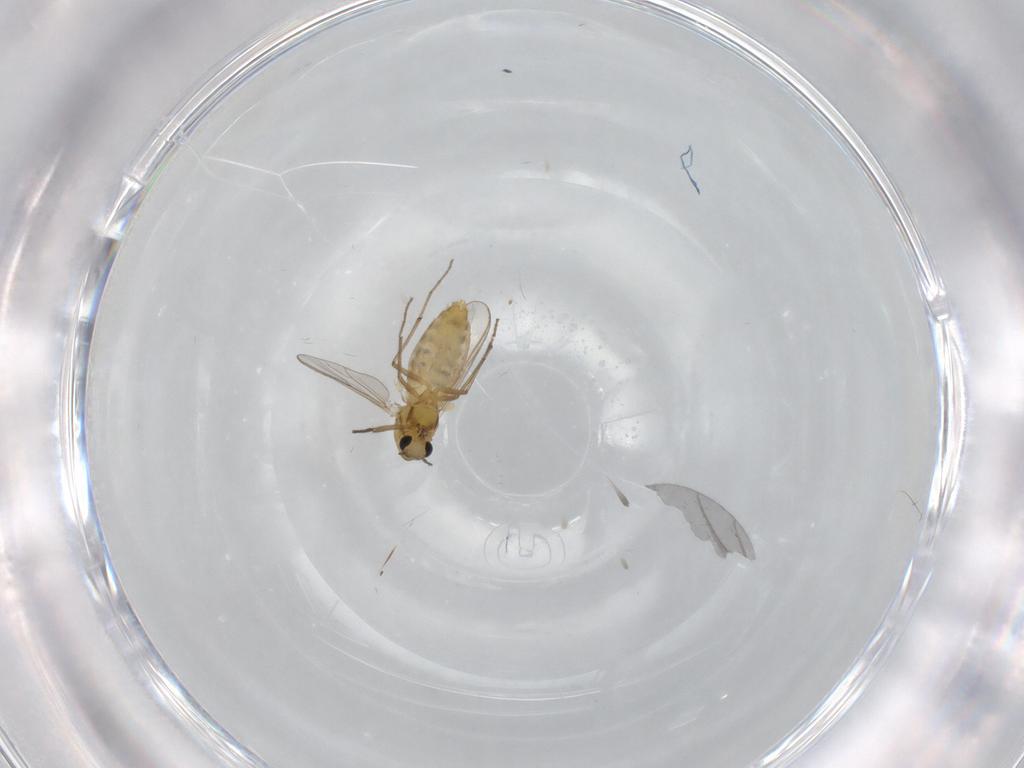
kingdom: Animalia
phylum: Arthropoda
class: Insecta
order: Diptera
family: Chironomidae
